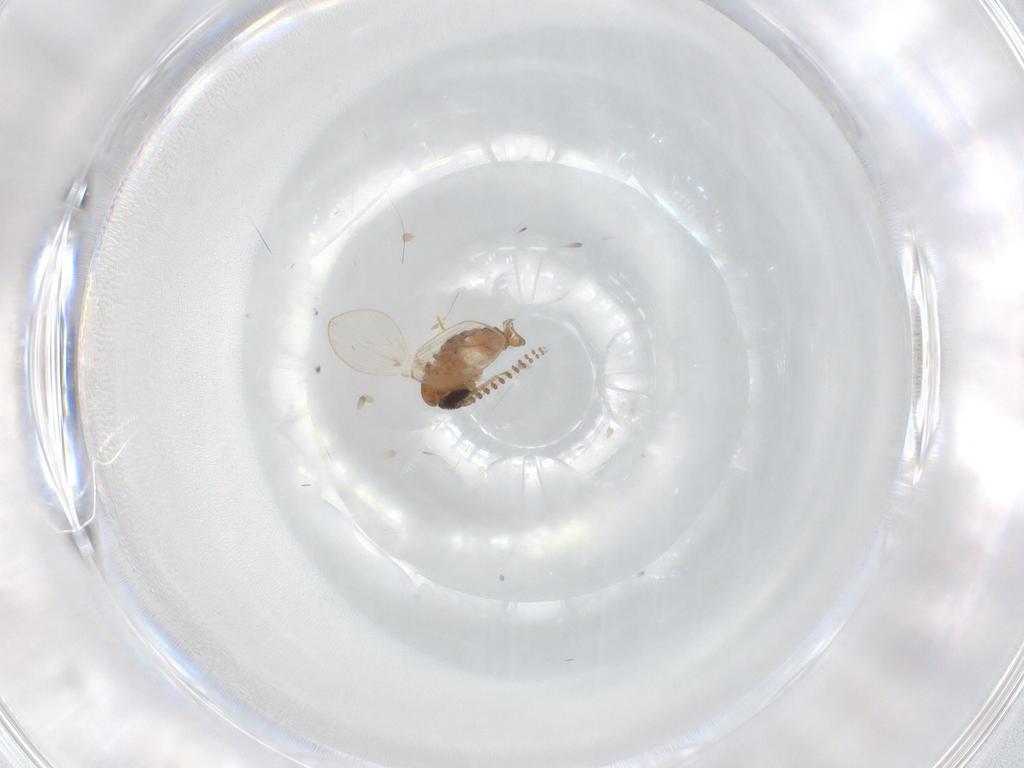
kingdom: Animalia
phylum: Arthropoda
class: Insecta
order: Diptera
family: Psychodidae
